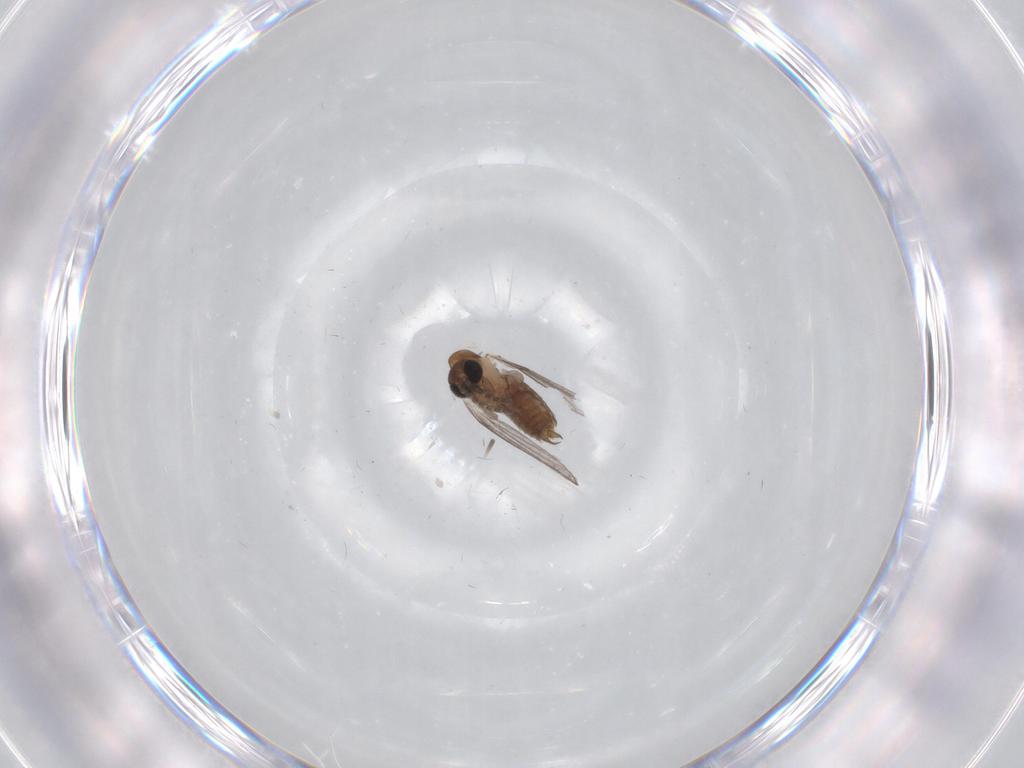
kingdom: Animalia
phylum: Arthropoda
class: Insecta
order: Diptera
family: Psychodidae
